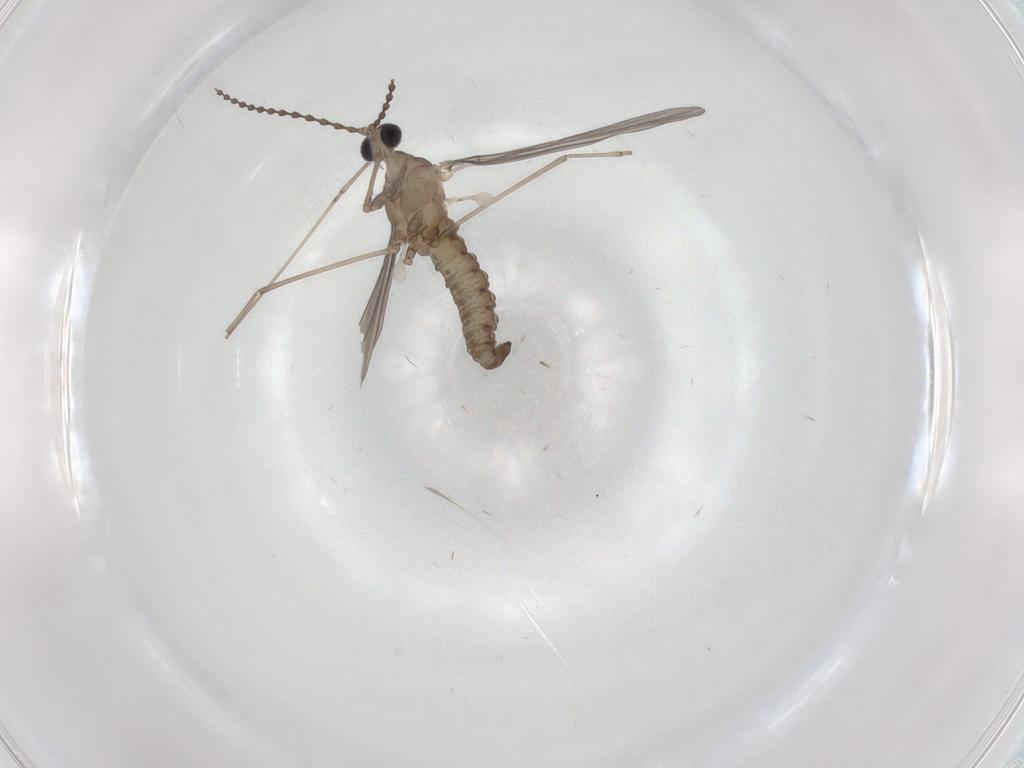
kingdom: Animalia
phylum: Arthropoda
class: Insecta
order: Diptera
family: Cecidomyiidae
